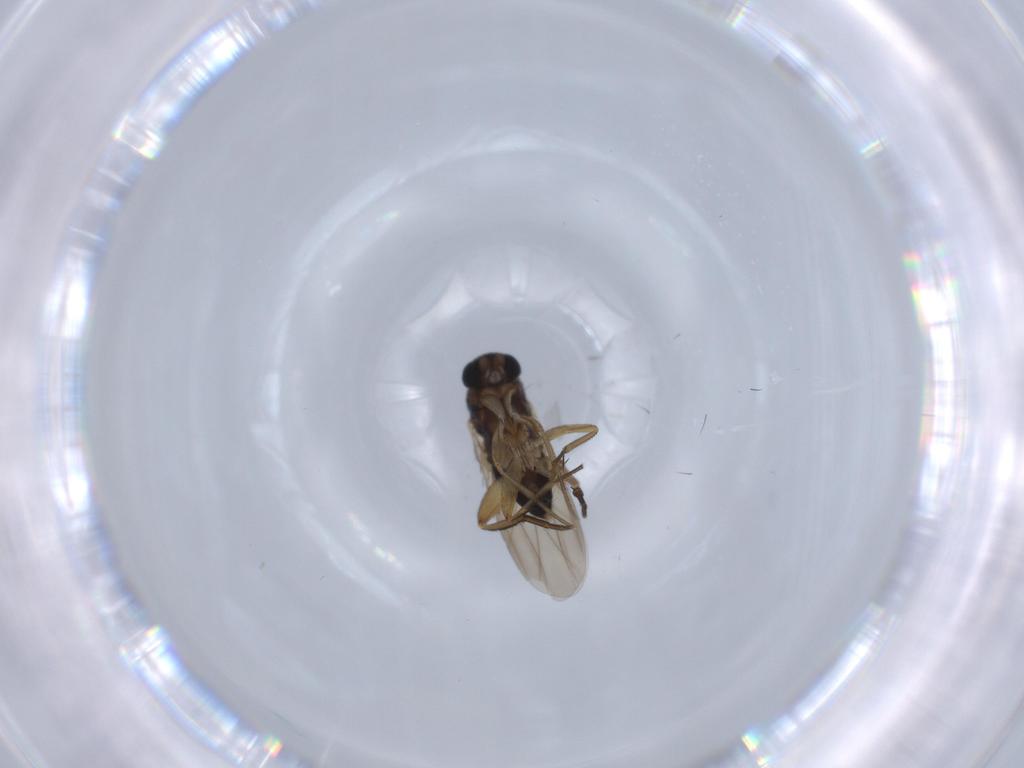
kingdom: Animalia
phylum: Arthropoda
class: Insecta
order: Diptera
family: Phoridae
